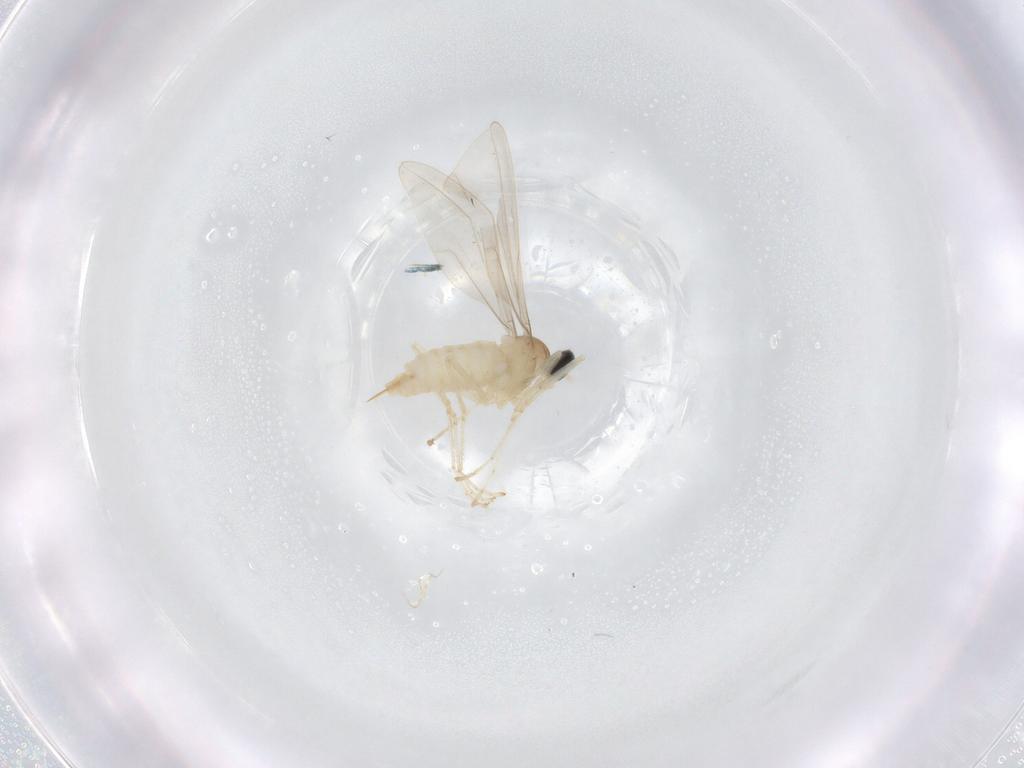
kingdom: Animalia
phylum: Arthropoda
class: Insecta
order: Diptera
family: Cecidomyiidae
